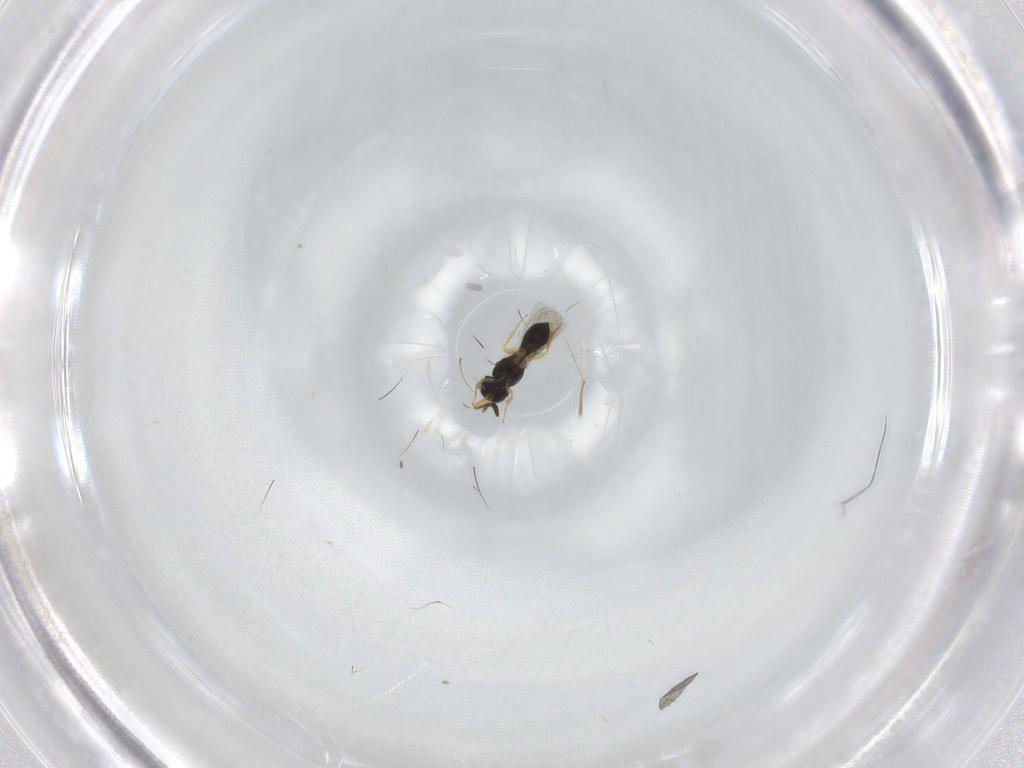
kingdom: Animalia
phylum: Arthropoda
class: Insecta
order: Hymenoptera
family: Scelionidae
